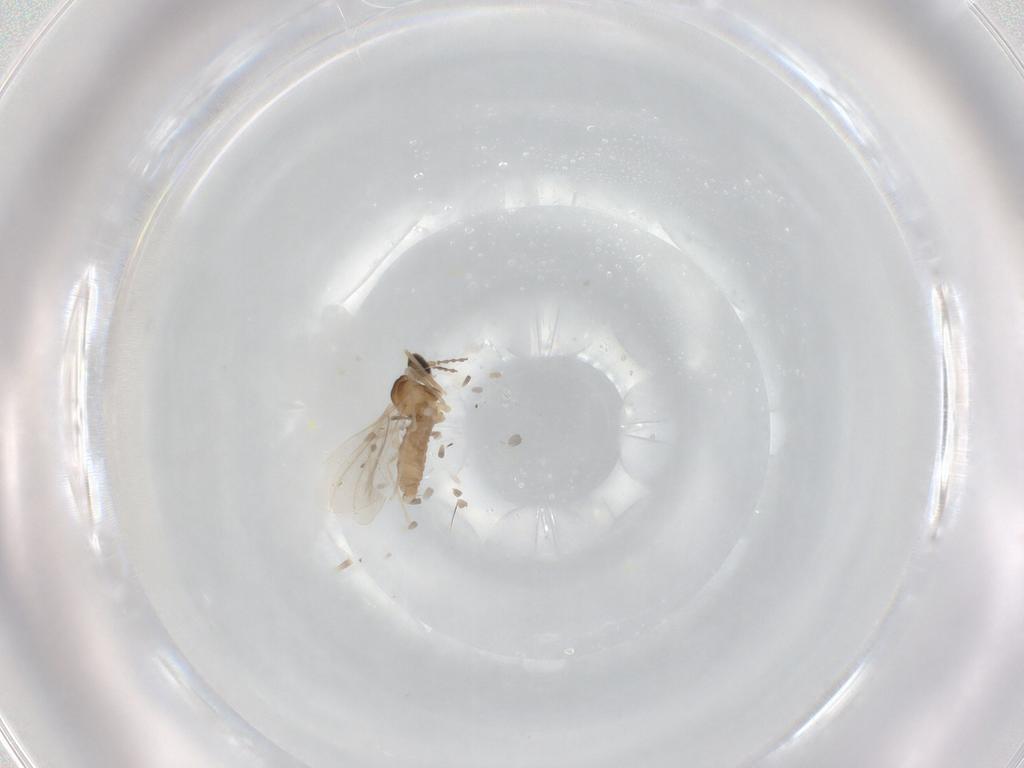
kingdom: Animalia
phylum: Arthropoda
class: Insecta
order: Diptera
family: Cecidomyiidae
